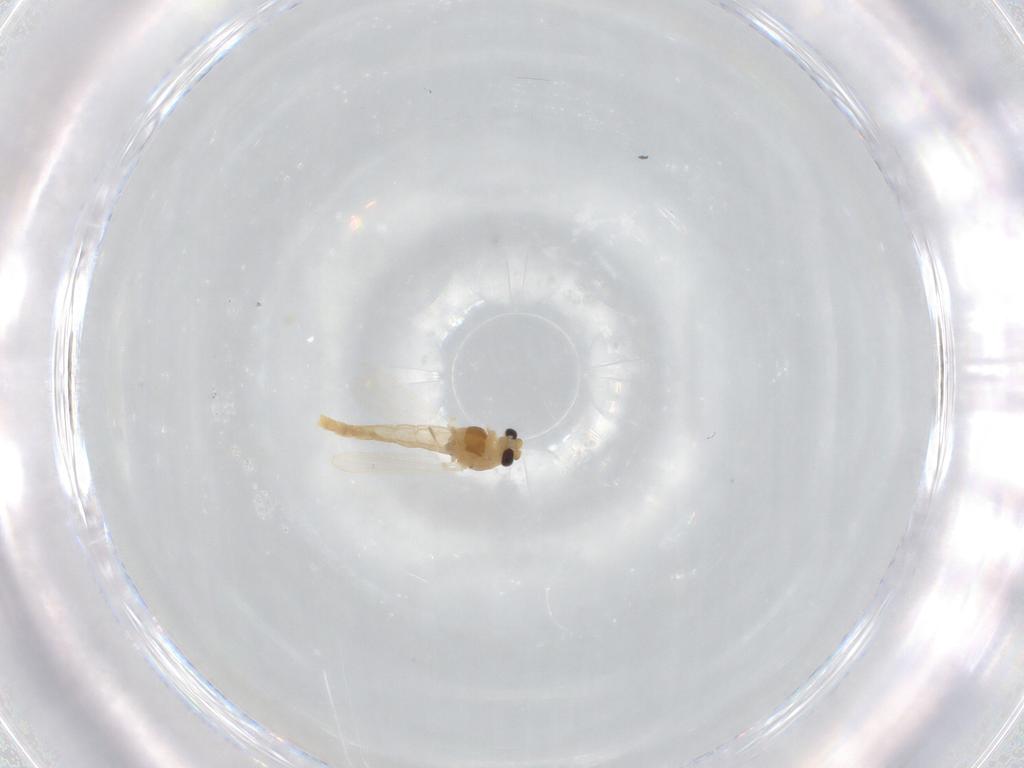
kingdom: Animalia
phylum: Arthropoda
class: Insecta
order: Diptera
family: Chironomidae
